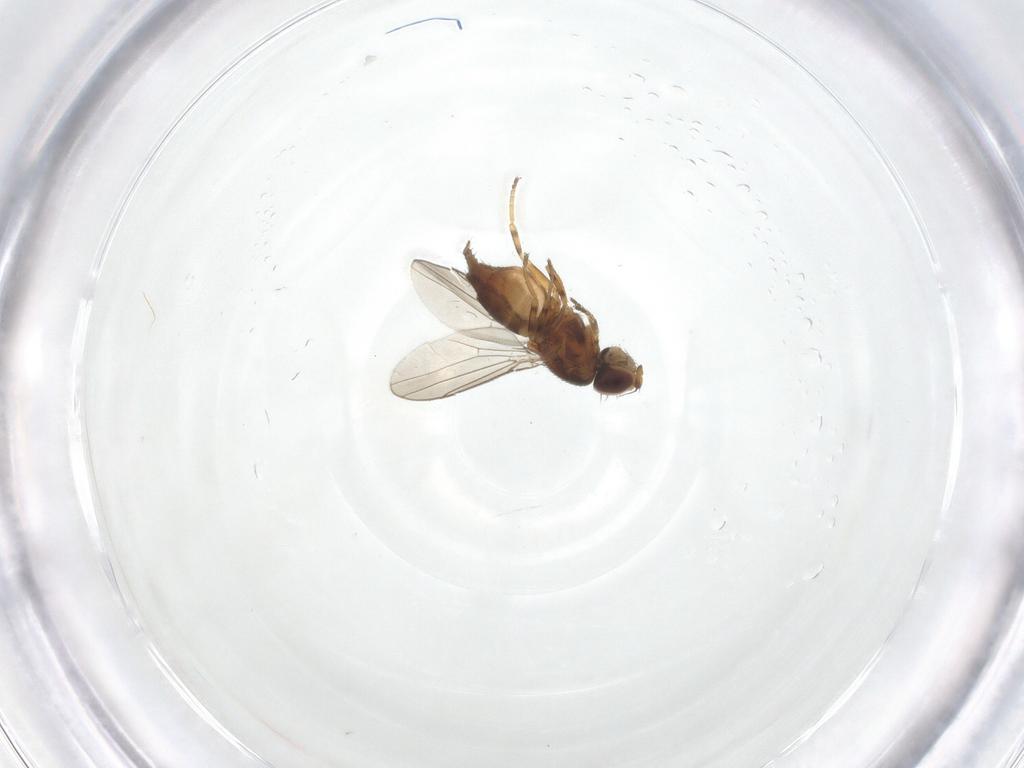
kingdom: Animalia
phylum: Arthropoda
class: Insecta
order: Diptera
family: Chloropidae
